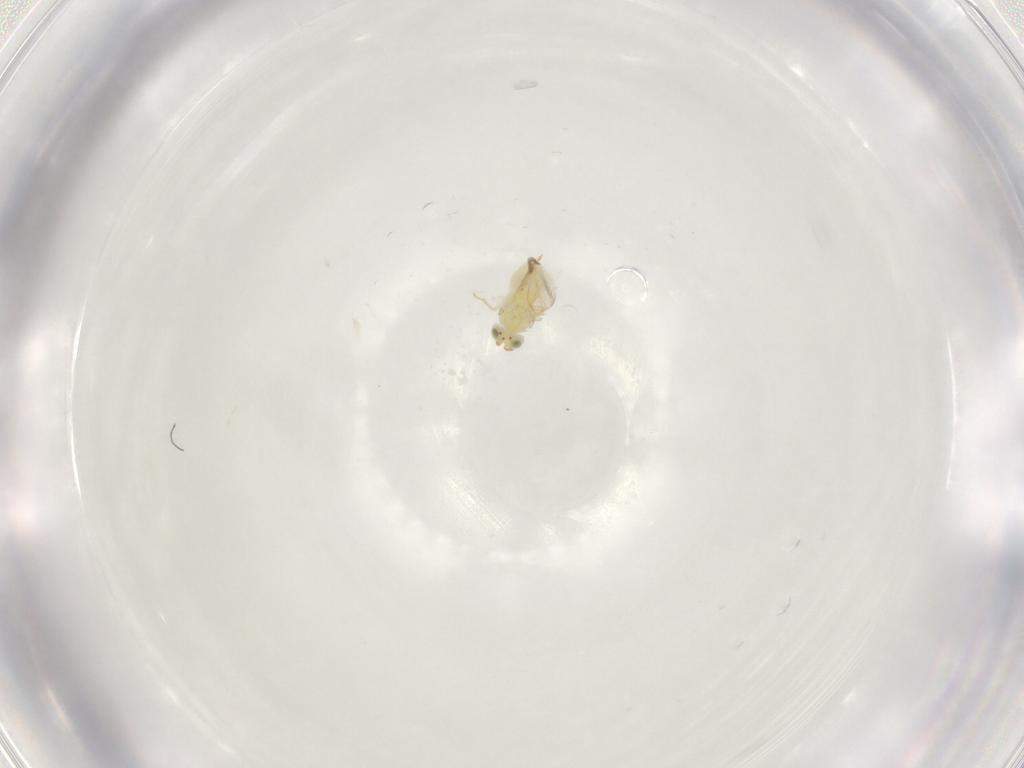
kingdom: Animalia
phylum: Arthropoda
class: Insecta
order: Hymenoptera
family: Aphelinidae
